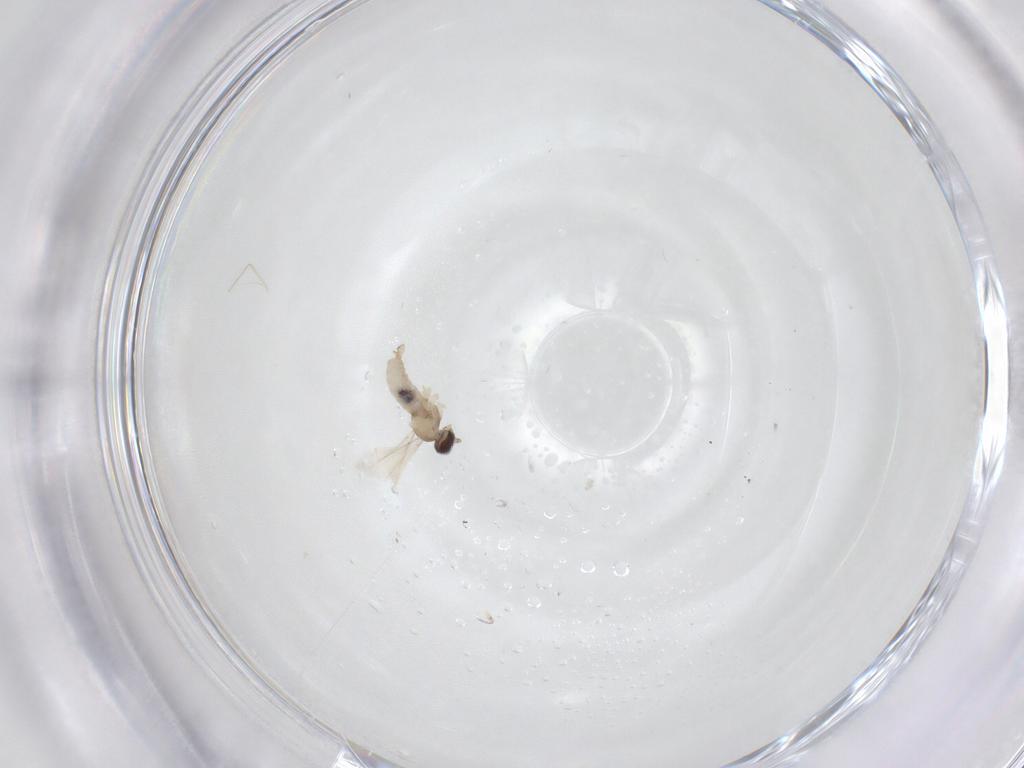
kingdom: Animalia
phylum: Arthropoda
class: Insecta
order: Diptera
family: Cecidomyiidae
